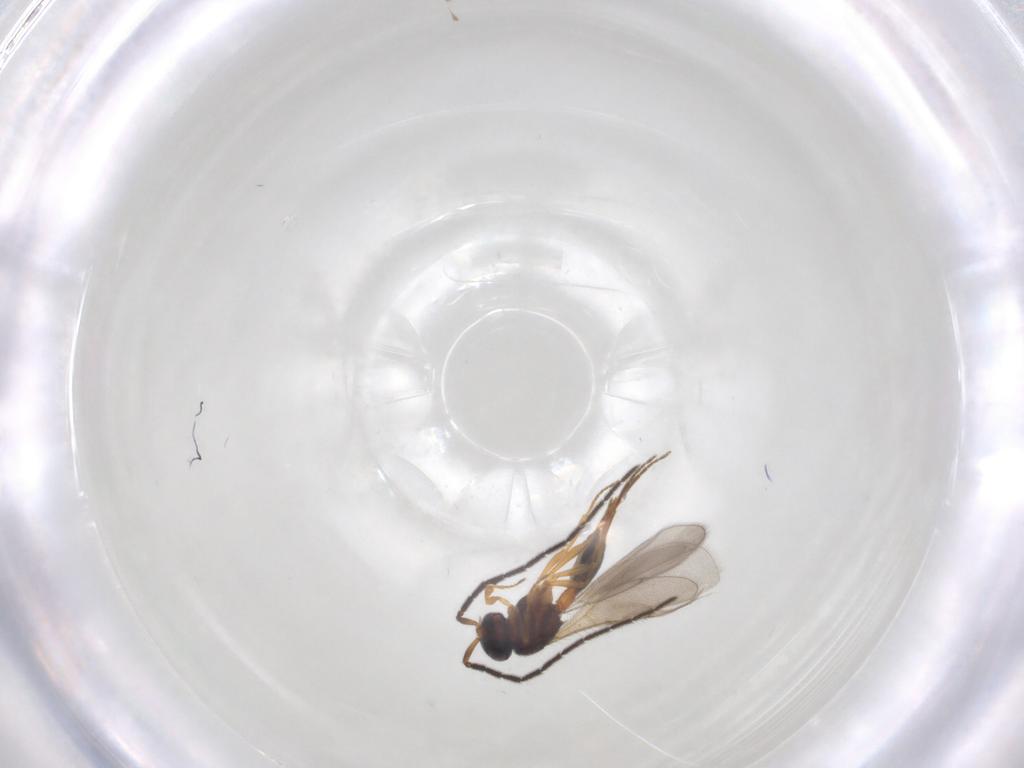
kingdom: Animalia
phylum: Arthropoda
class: Insecta
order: Hymenoptera
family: Scelionidae
